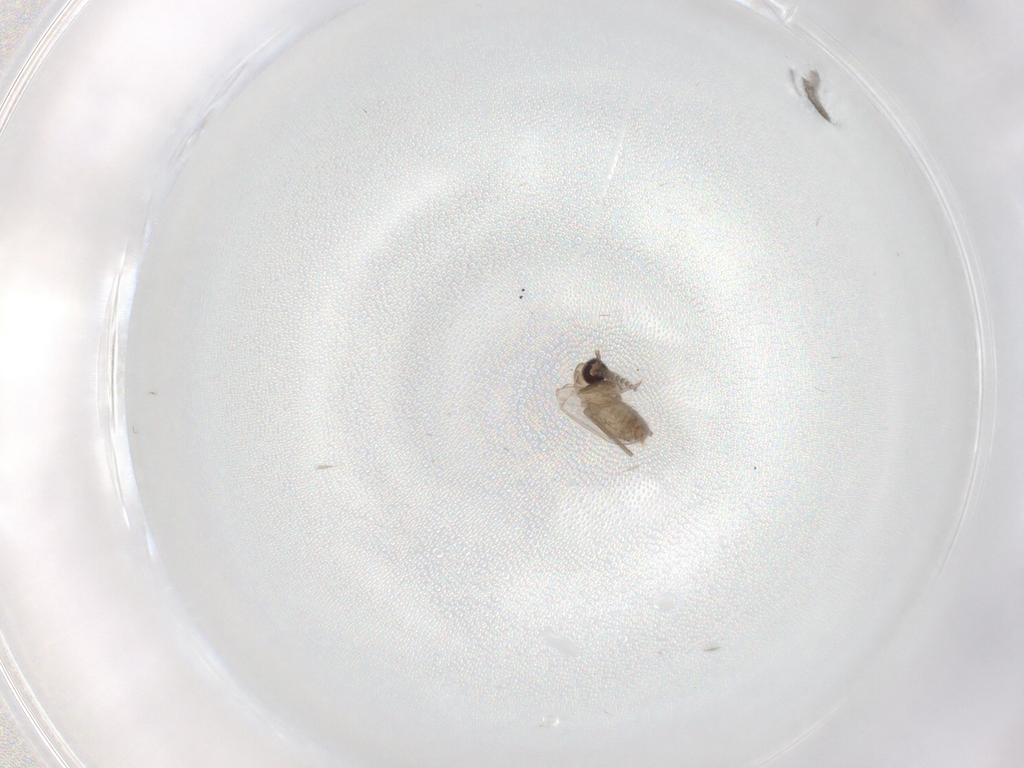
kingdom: Animalia
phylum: Arthropoda
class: Insecta
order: Diptera
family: Psychodidae
